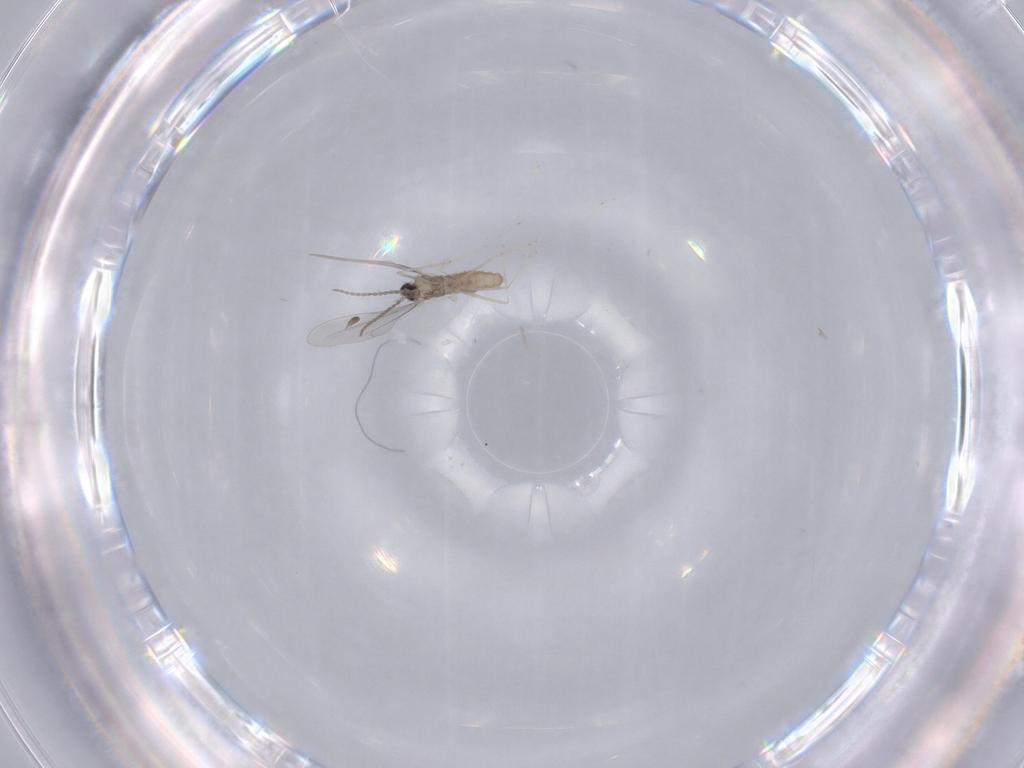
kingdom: Animalia
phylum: Arthropoda
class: Insecta
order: Diptera
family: Cecidomyiidae
